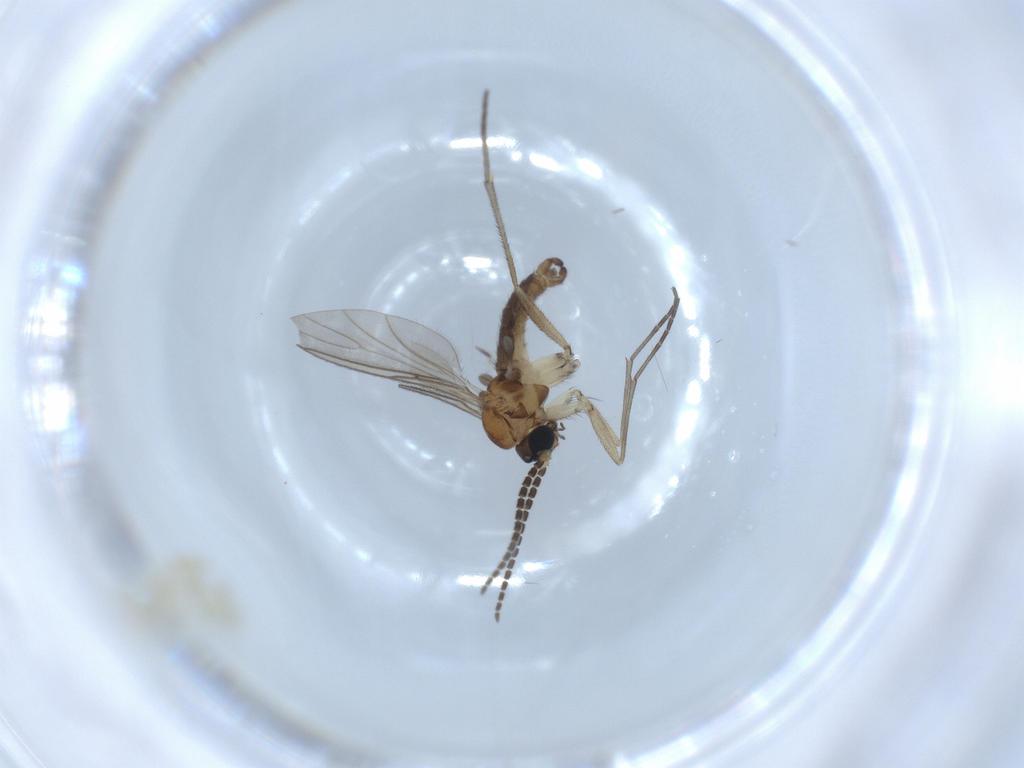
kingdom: Animalia
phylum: Arthropoda
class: Insecta
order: Diptera
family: Sciaridae
